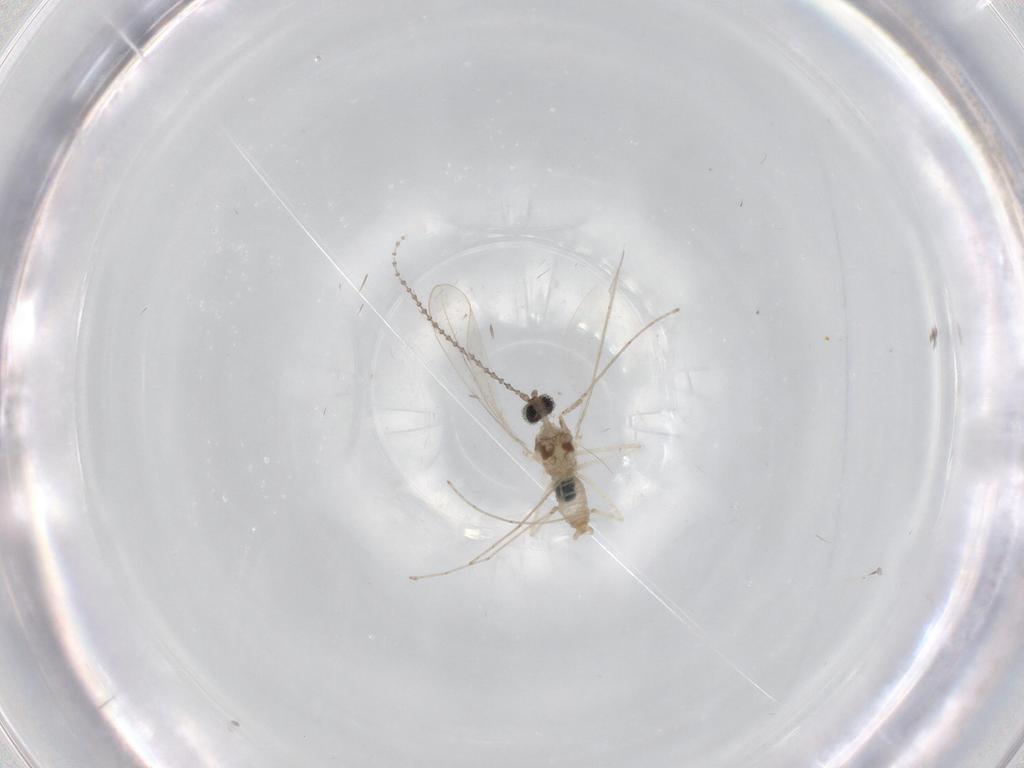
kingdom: Animalia
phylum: Arthropoda
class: Insecta
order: Diptera
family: Cecidomyiidae
